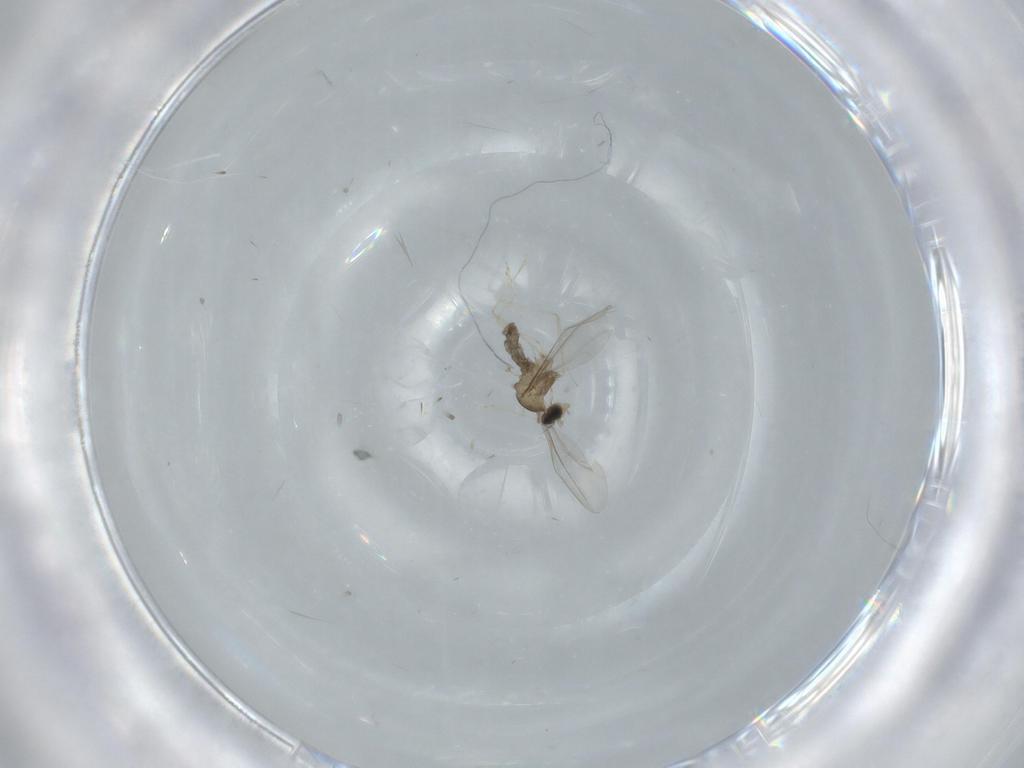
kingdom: Animalia
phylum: Arthropoda
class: Insecta
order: Diptera
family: Cecidomyiidae
